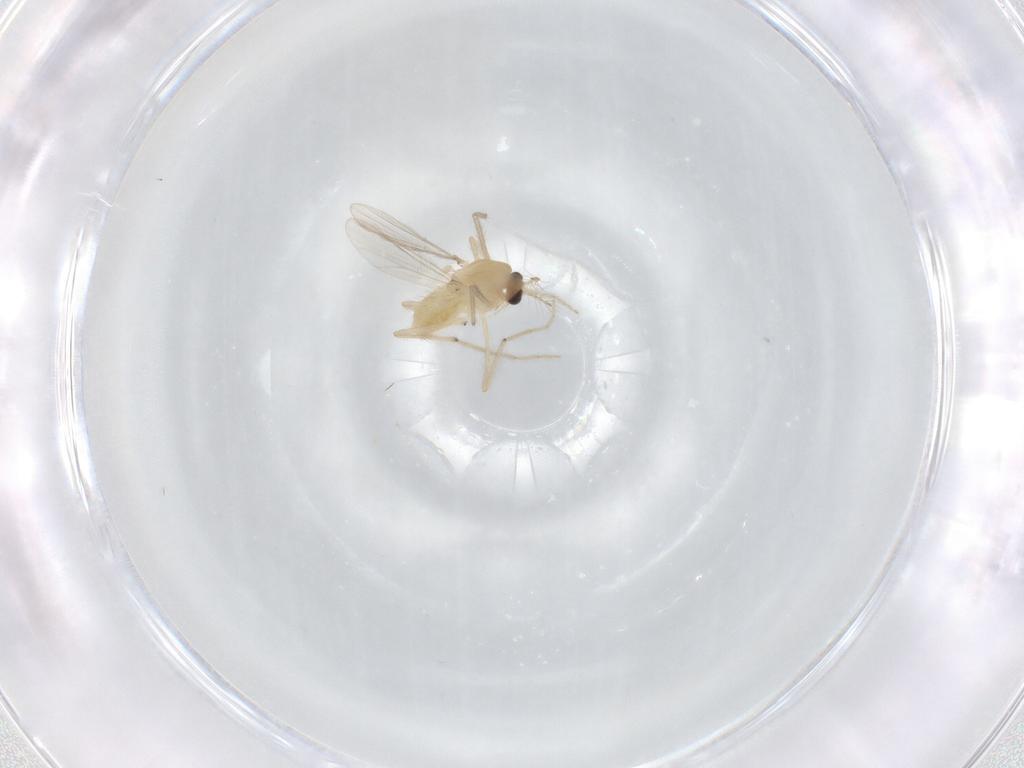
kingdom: Animalia
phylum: Arthropoda
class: Insecta
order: Diptera
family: Chironomidae
